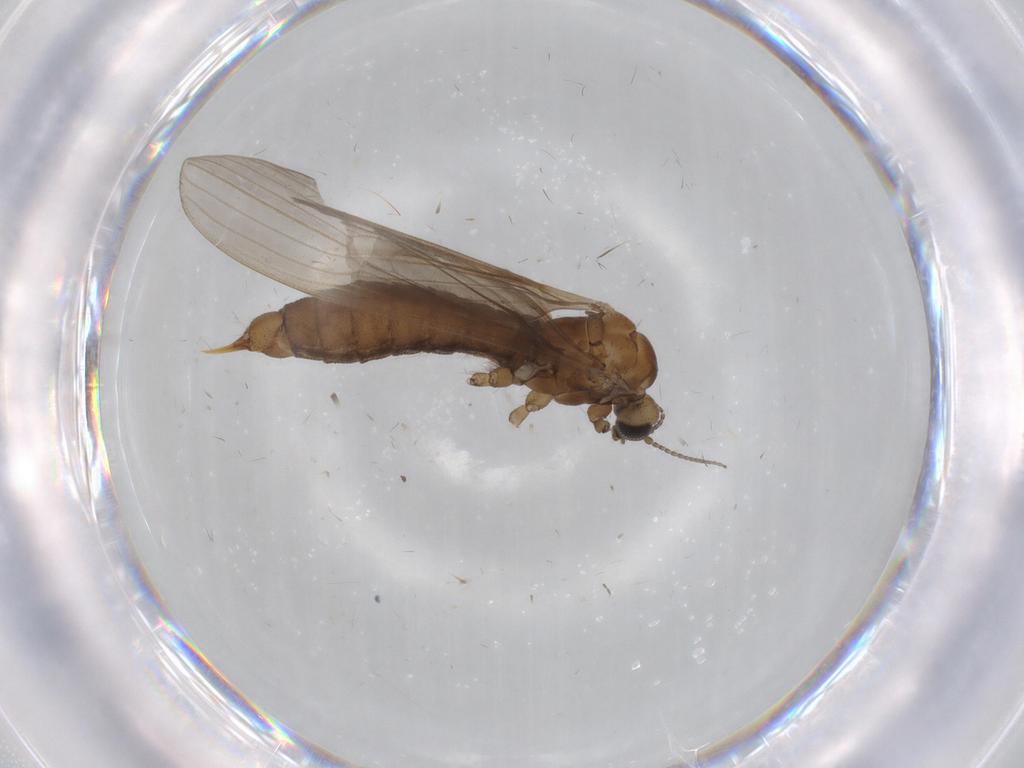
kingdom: Animalia
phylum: Arthropoda
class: Insecta
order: Diptera
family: Limoniidae
